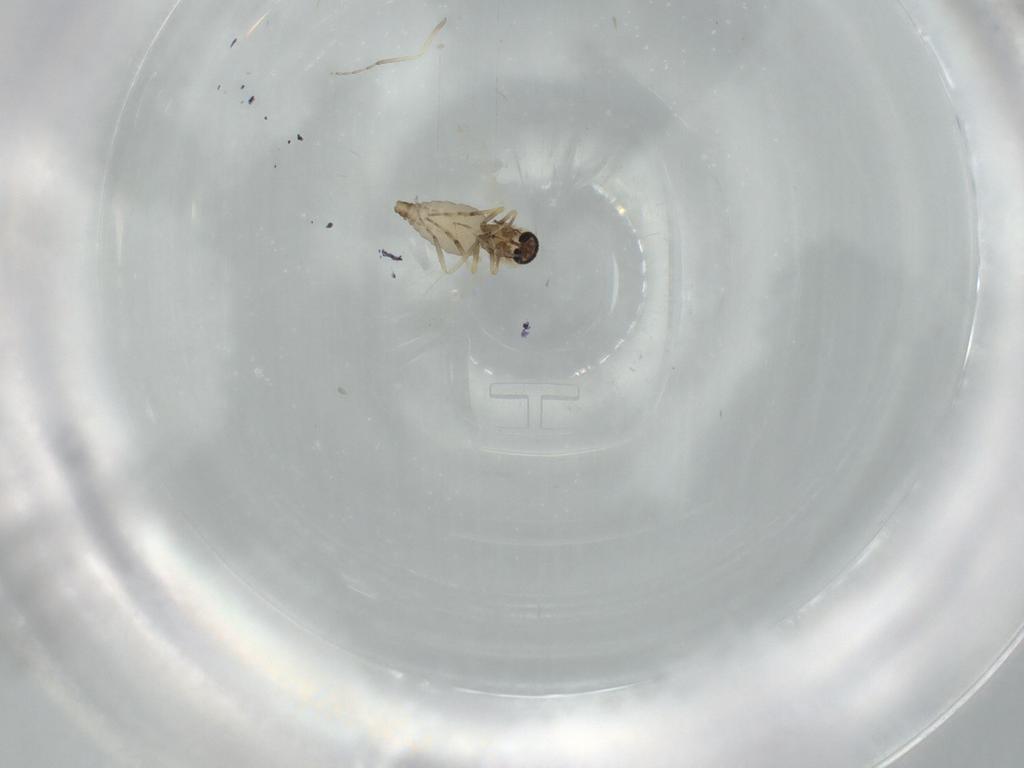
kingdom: Animalia
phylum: Arthropoda
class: Insecta
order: Diptera
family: Ceratopogonidae
